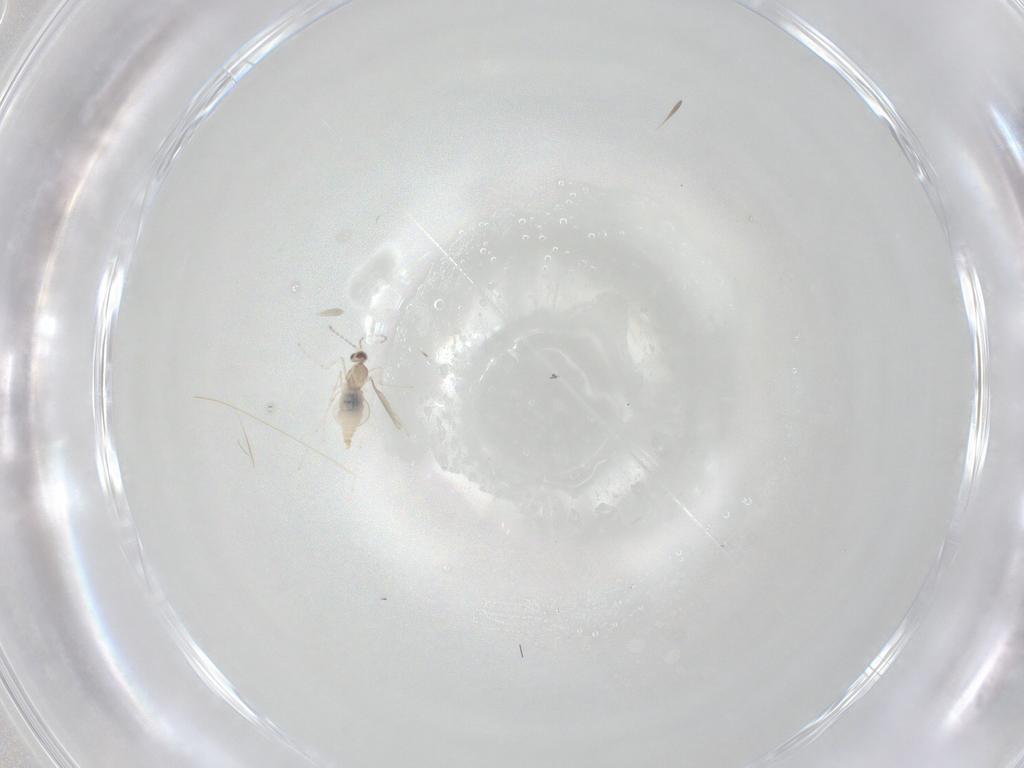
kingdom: Animalia
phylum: Arthropoda
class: Insecta
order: Diptera
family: Cecidomyiidae
